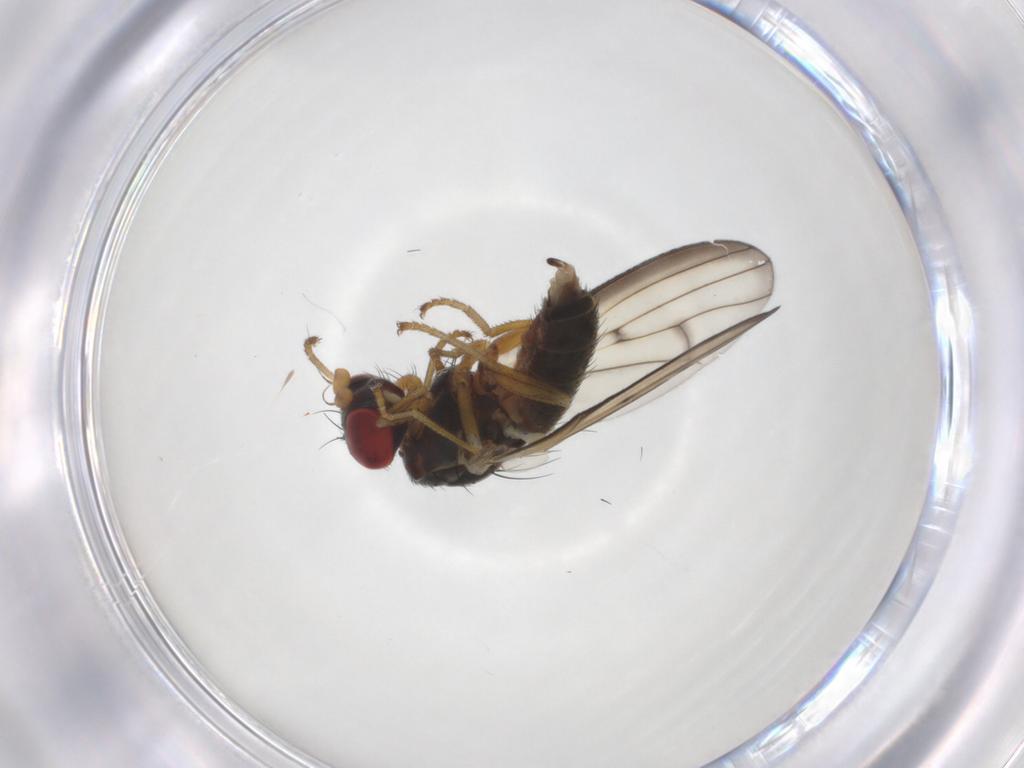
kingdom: Animalia
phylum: Arthropoda
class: Insecta
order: Diptera
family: Chamaemyiidae
